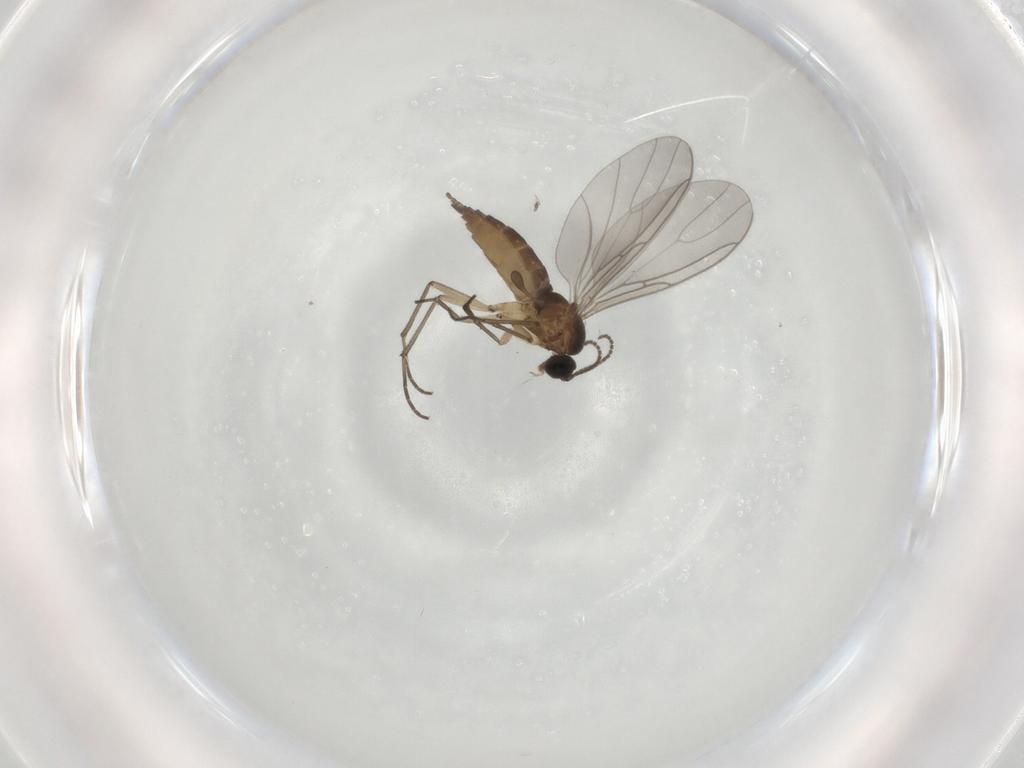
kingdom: Animalia
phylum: Arthropoda
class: Insecta
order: Diptera
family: Sciaridae
